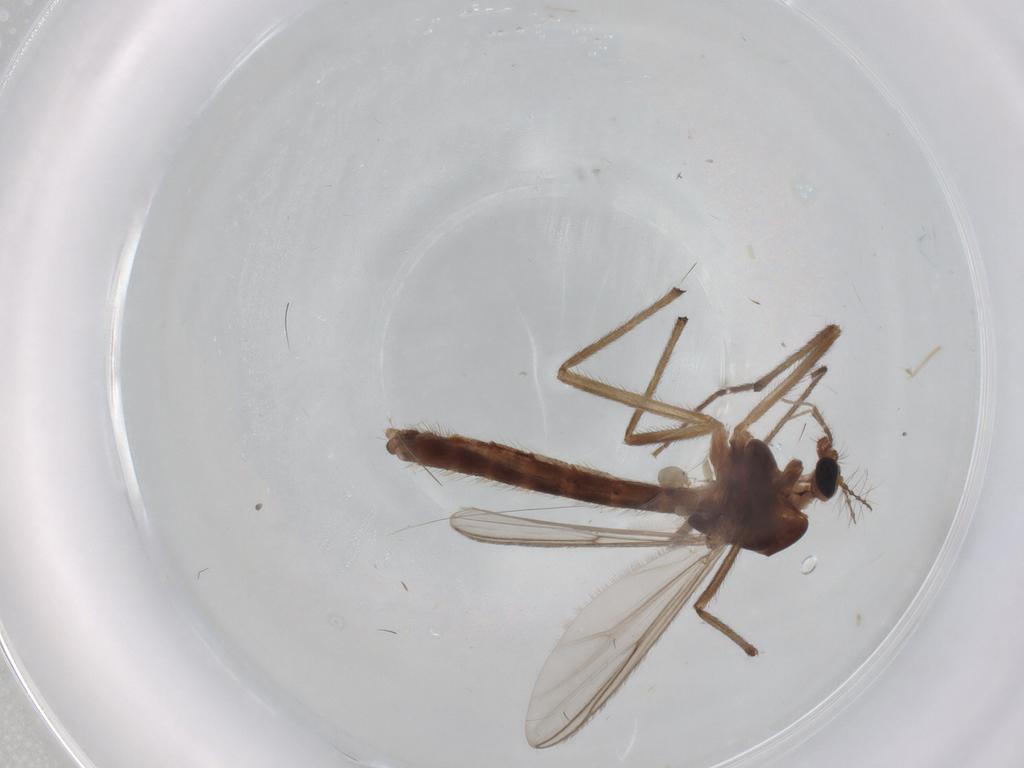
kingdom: Animalia
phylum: Arthropoda
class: Insecta
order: Diptera
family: Chironomidae
